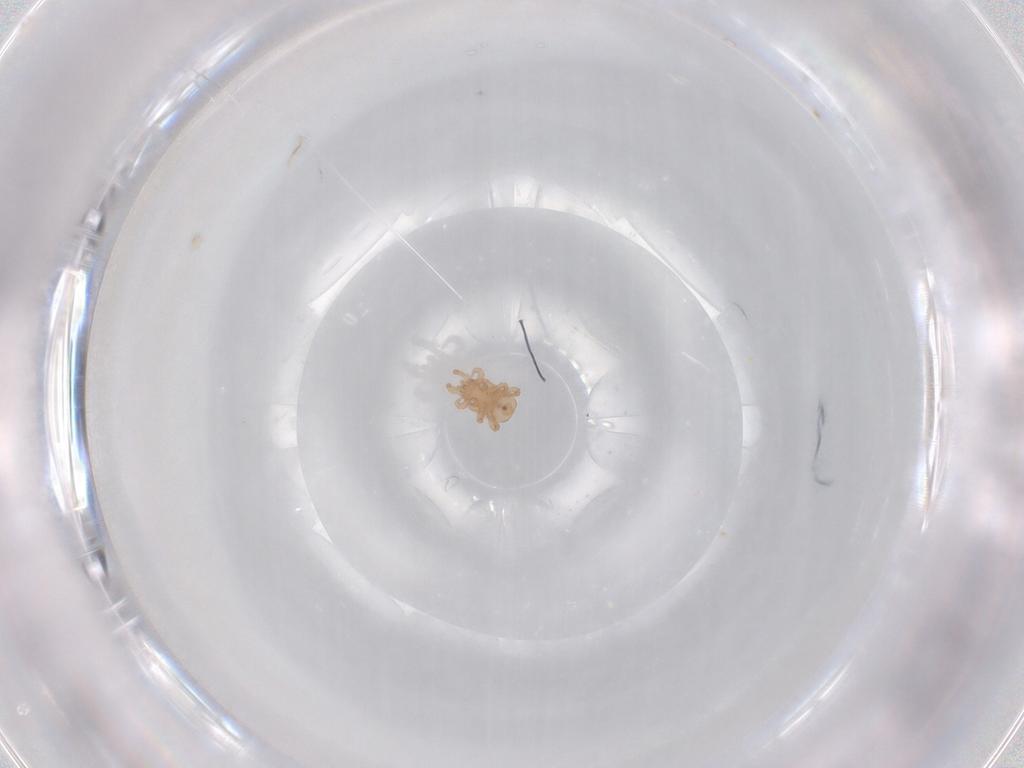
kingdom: Animalia
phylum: Arthropoda
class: Arachnida
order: Mesostigmata
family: Halolaelapidae
